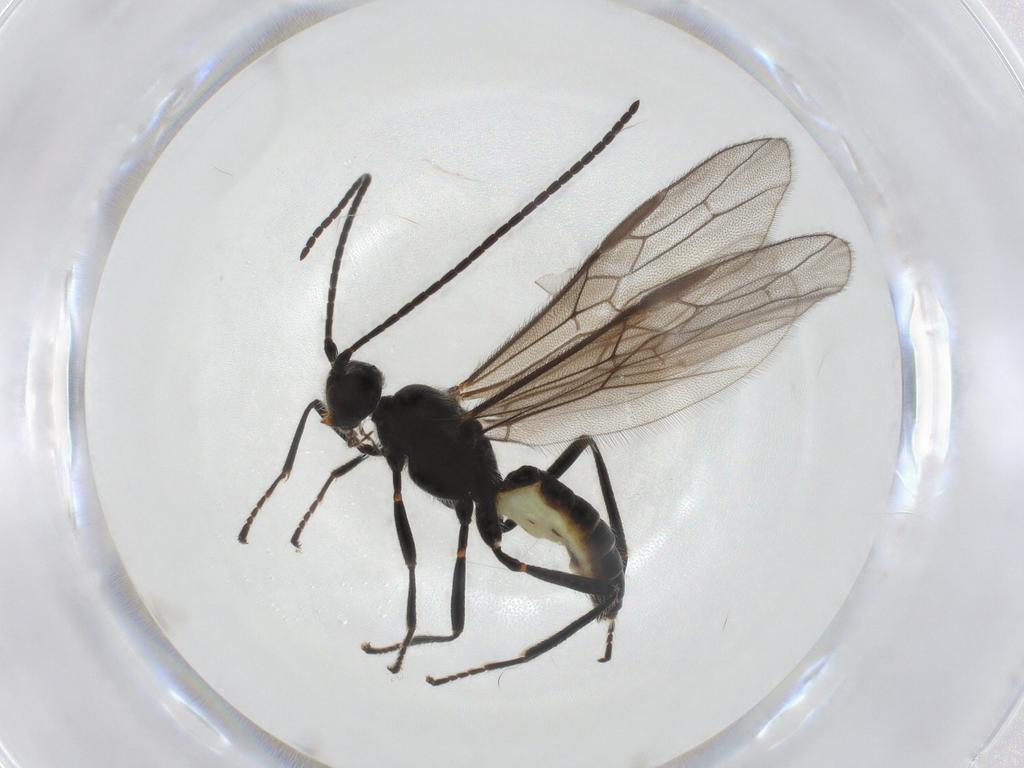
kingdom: Animalia
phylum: Arthropoda
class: Insecta
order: Hymenoptera
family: Braconidae
